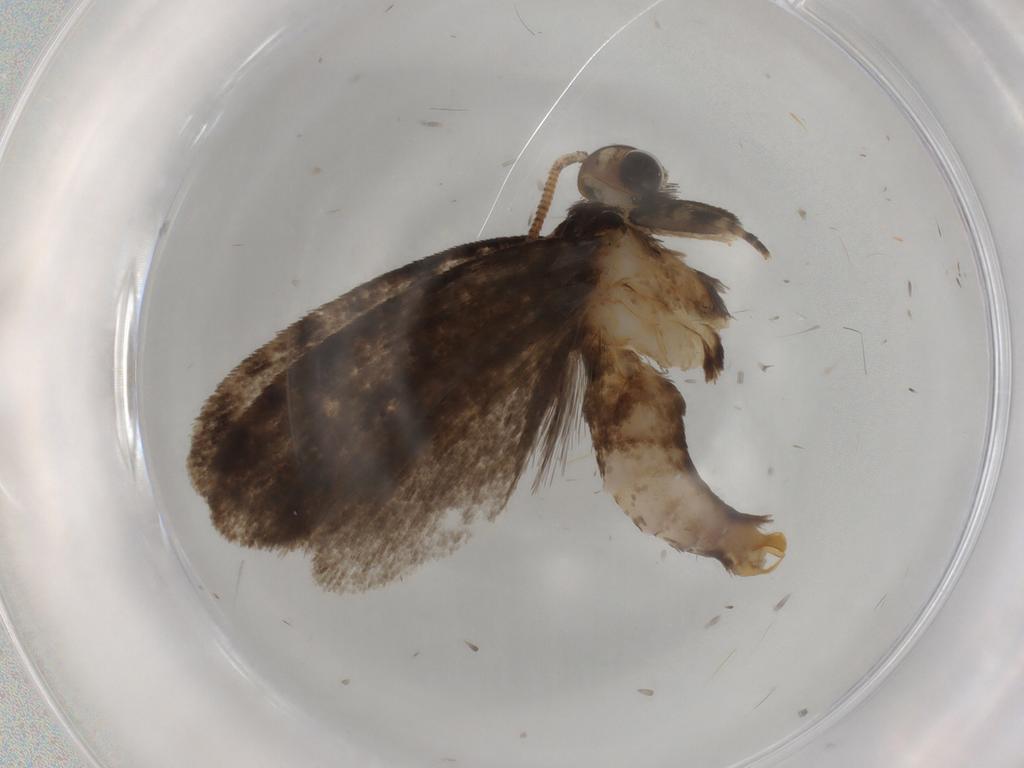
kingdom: Animalia
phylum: Arthropoda
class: Insecta
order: Lepidoptera
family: Tineidae
